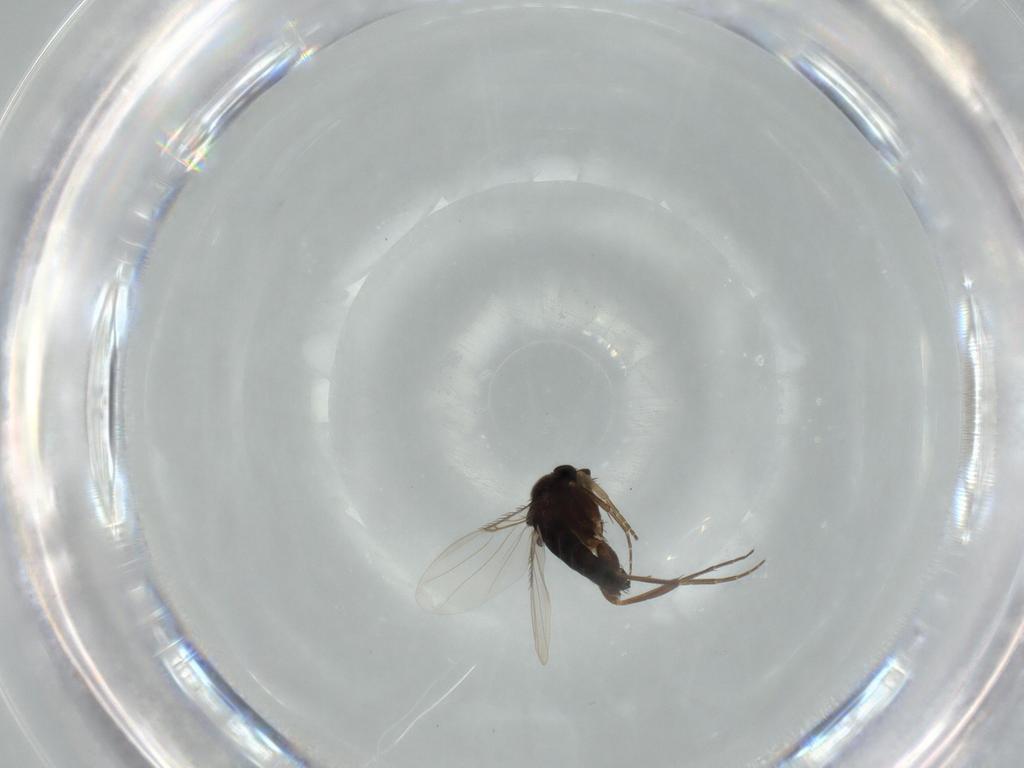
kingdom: Animalia
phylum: Arthropoda
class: Insecta
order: Diptera
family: Phoridae
